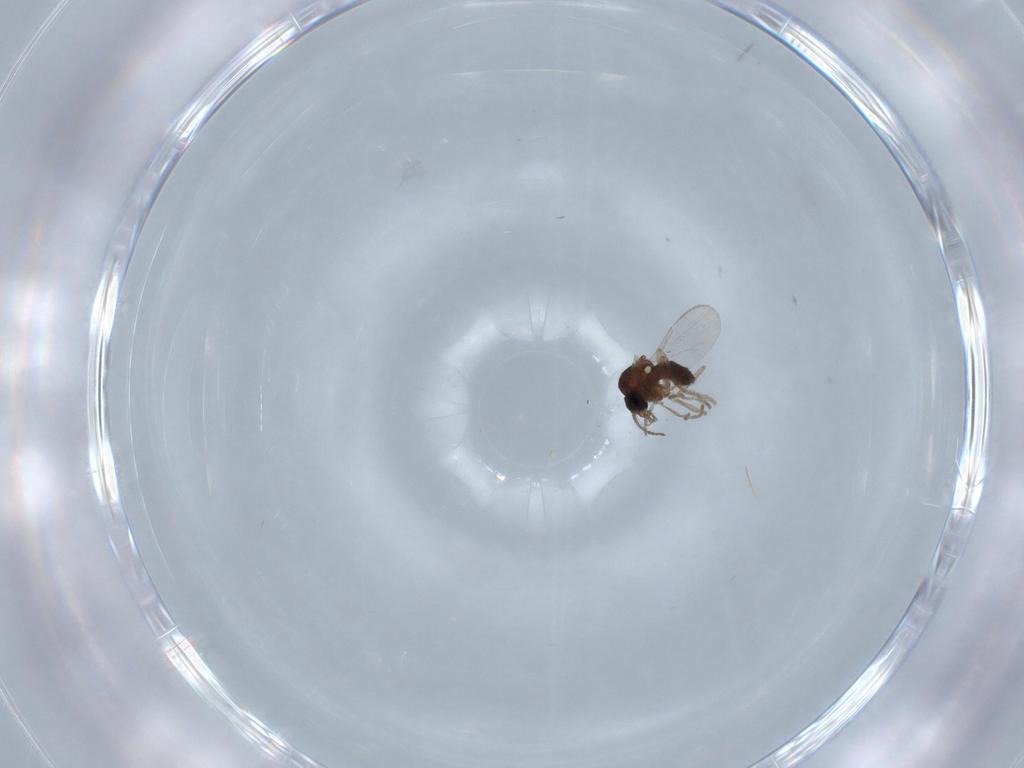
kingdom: Animalia
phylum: Arthropoda
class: Insecta
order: Diptera
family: Ceratopogonidae
